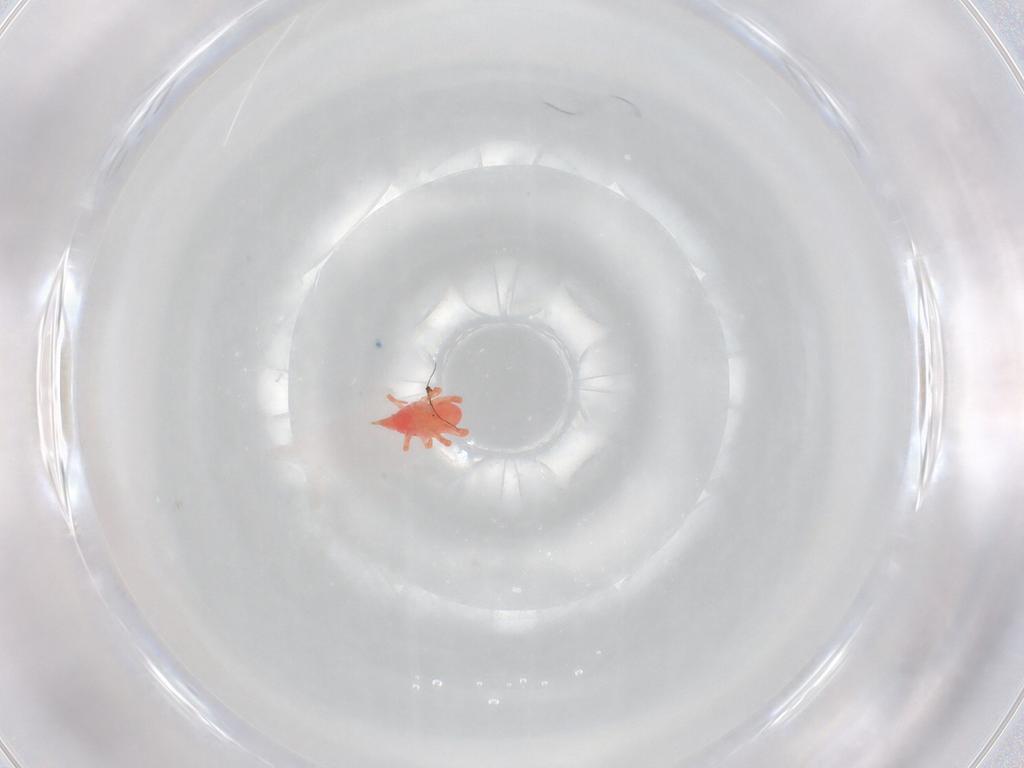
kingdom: Animalia
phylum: Arthropoda
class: Arachnida
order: Trombidiformes
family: Bdellidae
